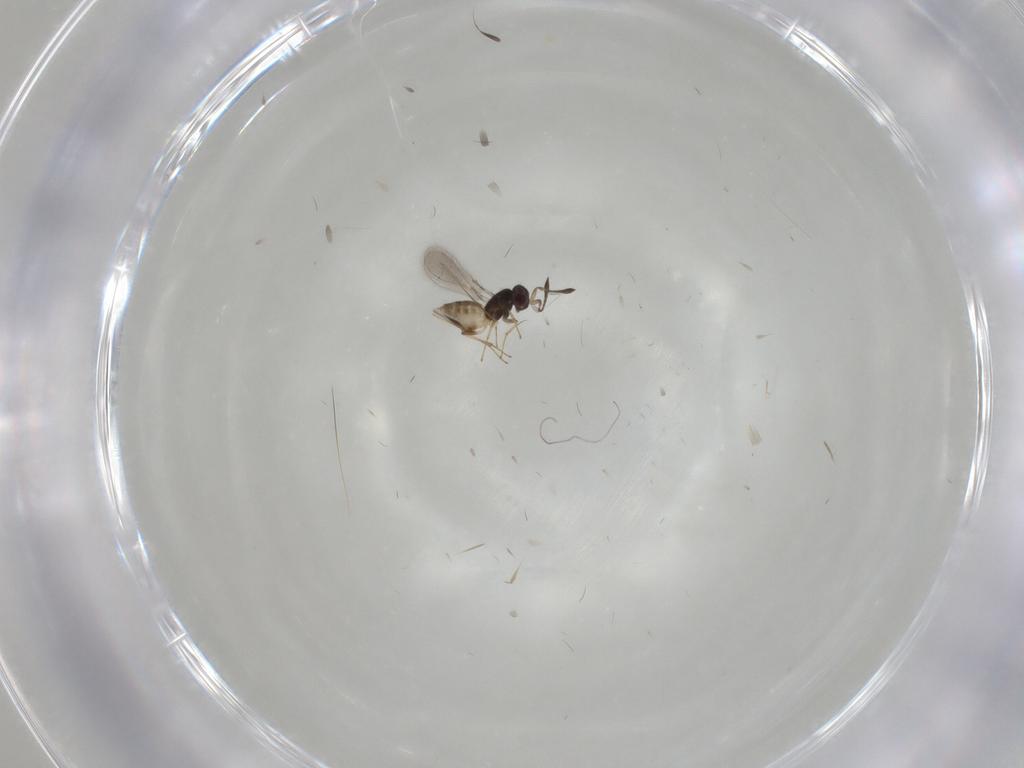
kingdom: Animalia
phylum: Arthropoda
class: Insecta
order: Hymenoptera
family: Mymaridae
